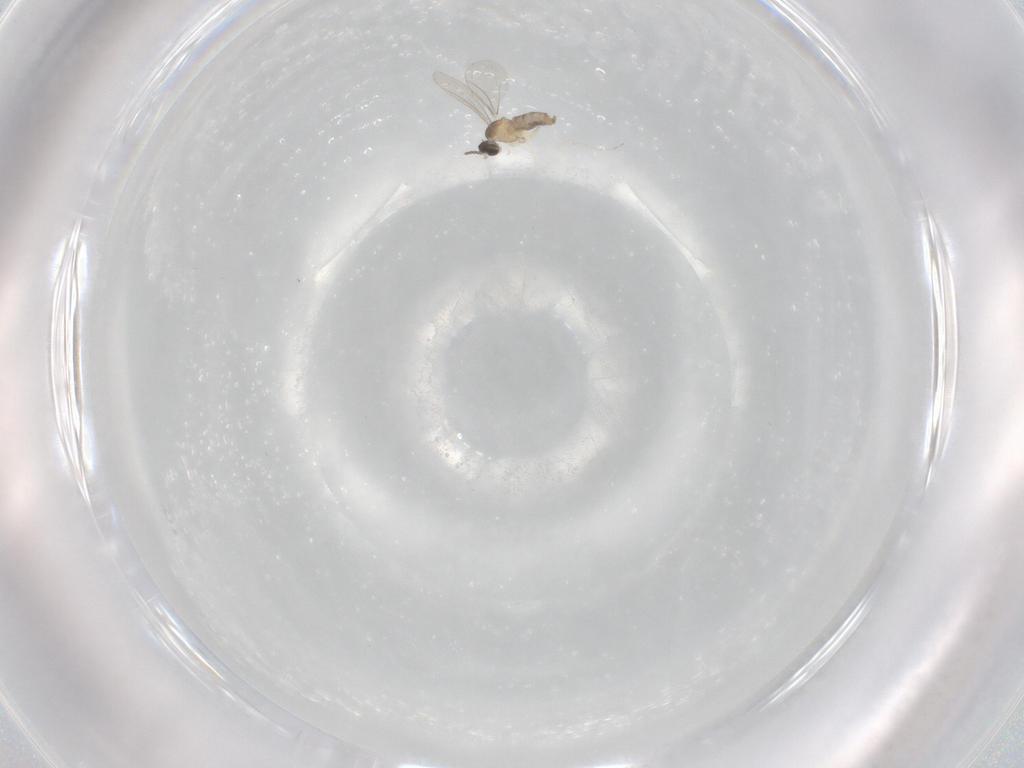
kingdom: Animalia
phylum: Arthropoda
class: Insecta
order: Diptera
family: Cecidomyiidae
